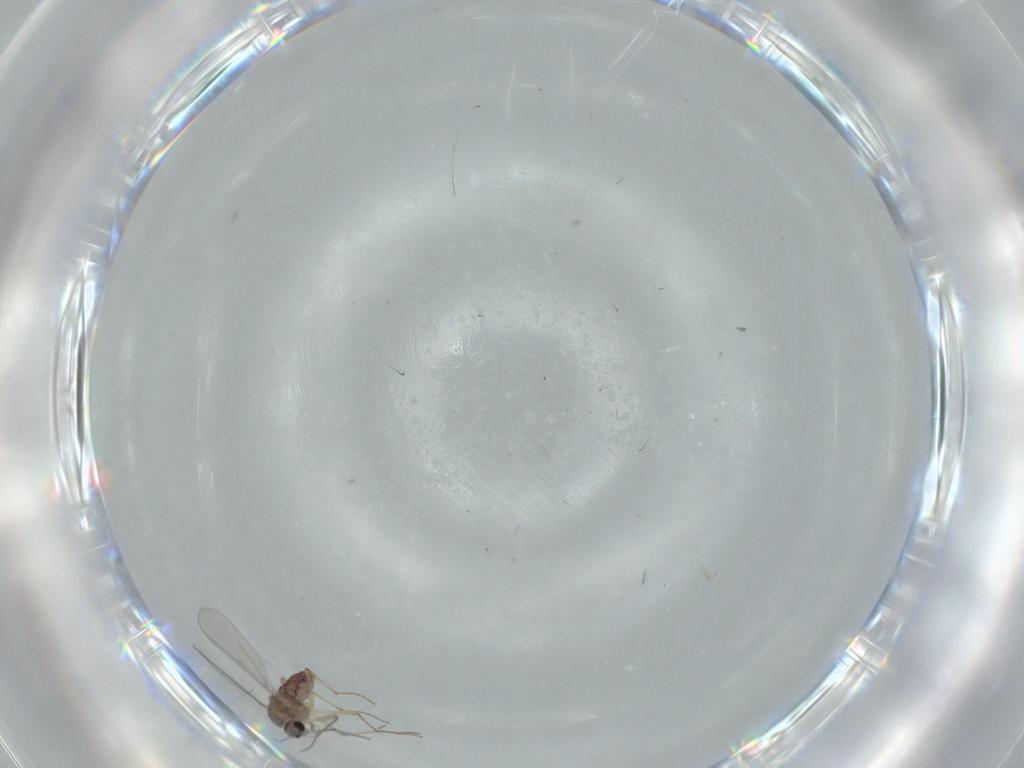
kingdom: Animalia
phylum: Arthropoda
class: Insecta
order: Diptera
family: Chironomidae
